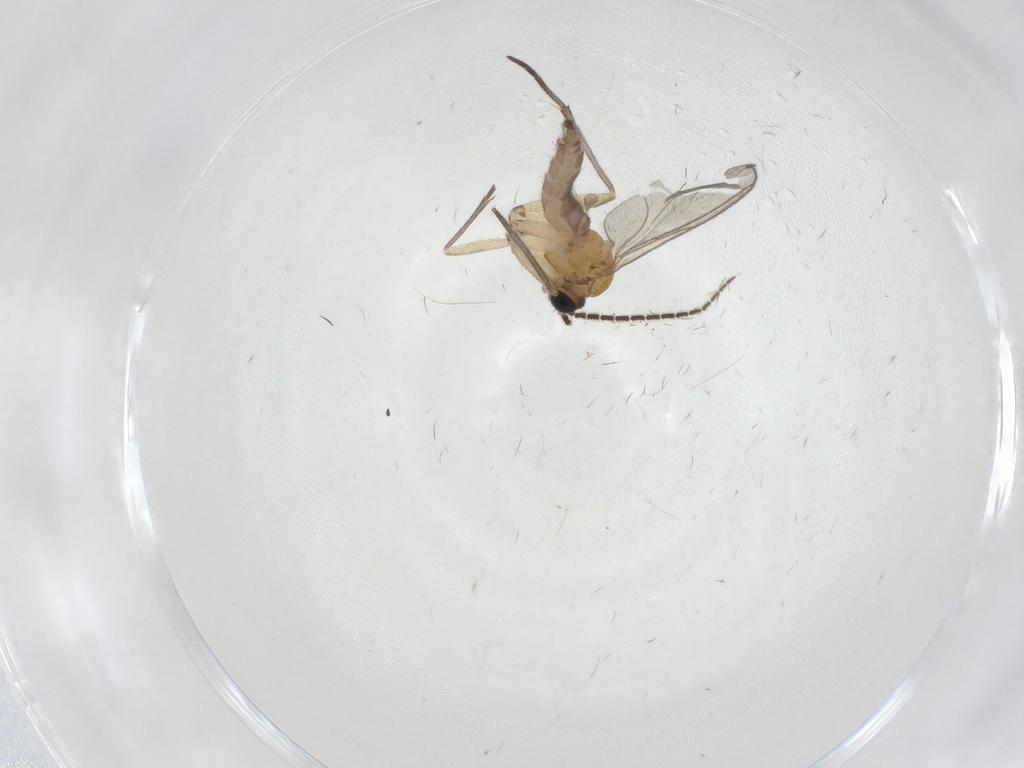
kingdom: Animalia
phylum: Arthropoda
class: Insecta
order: Diptera
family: Sciaridae
